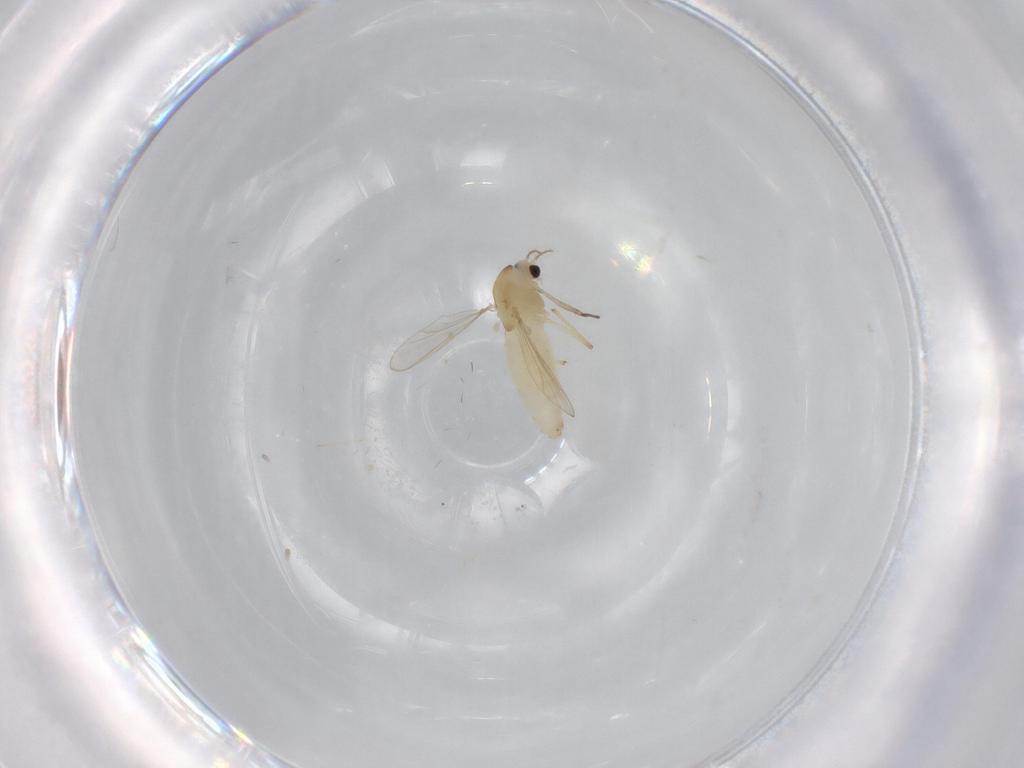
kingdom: Animalia
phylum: Arthropoda
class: Insecta
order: Diptera
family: Chironomidae
